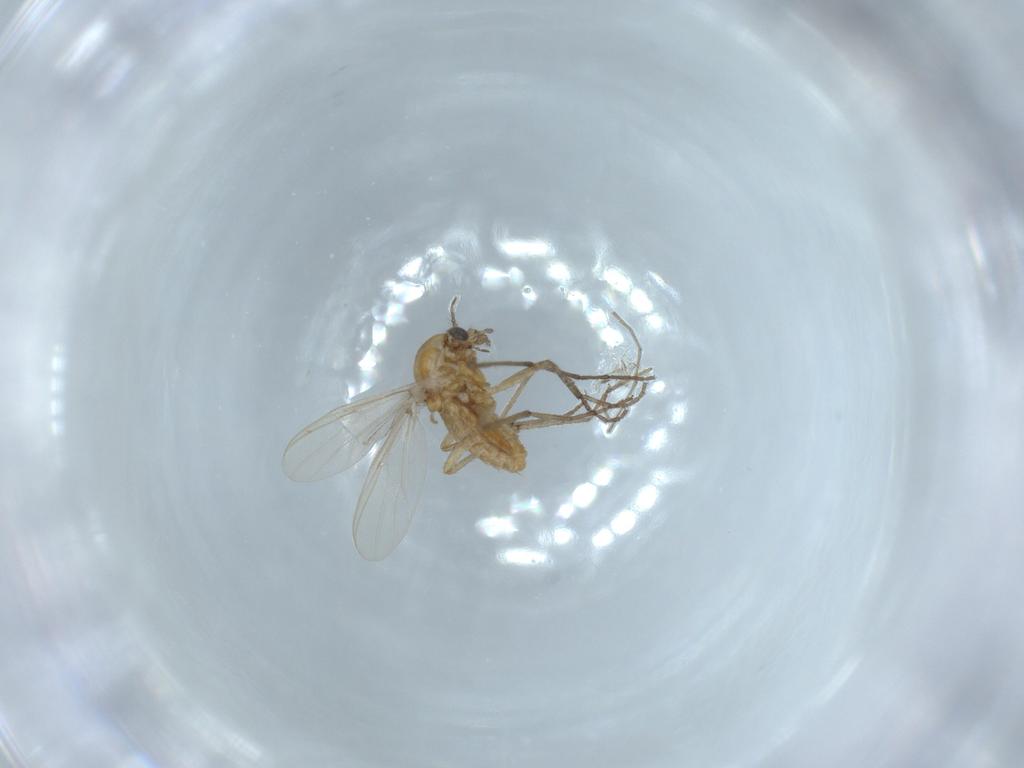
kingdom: Animalia
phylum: Arthropoda
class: Insecta
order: Diptera
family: Chironomidae
